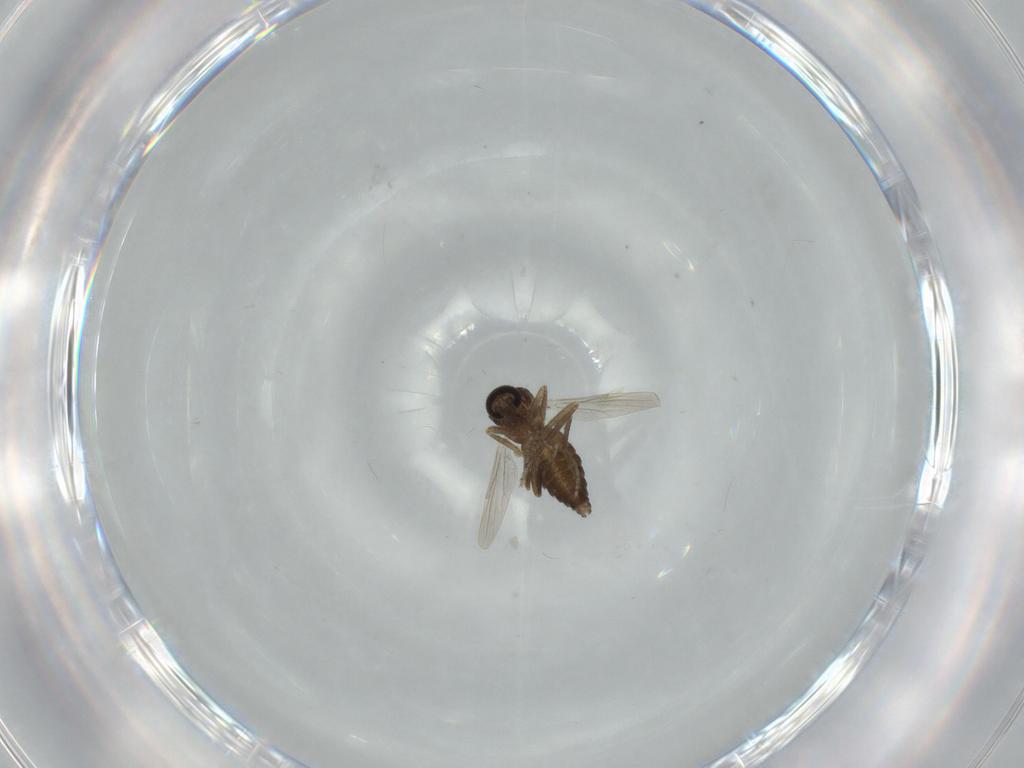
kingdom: Animalia
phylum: Arthropoda
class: Insecta
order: Diptera
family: Ceratopogonidae
